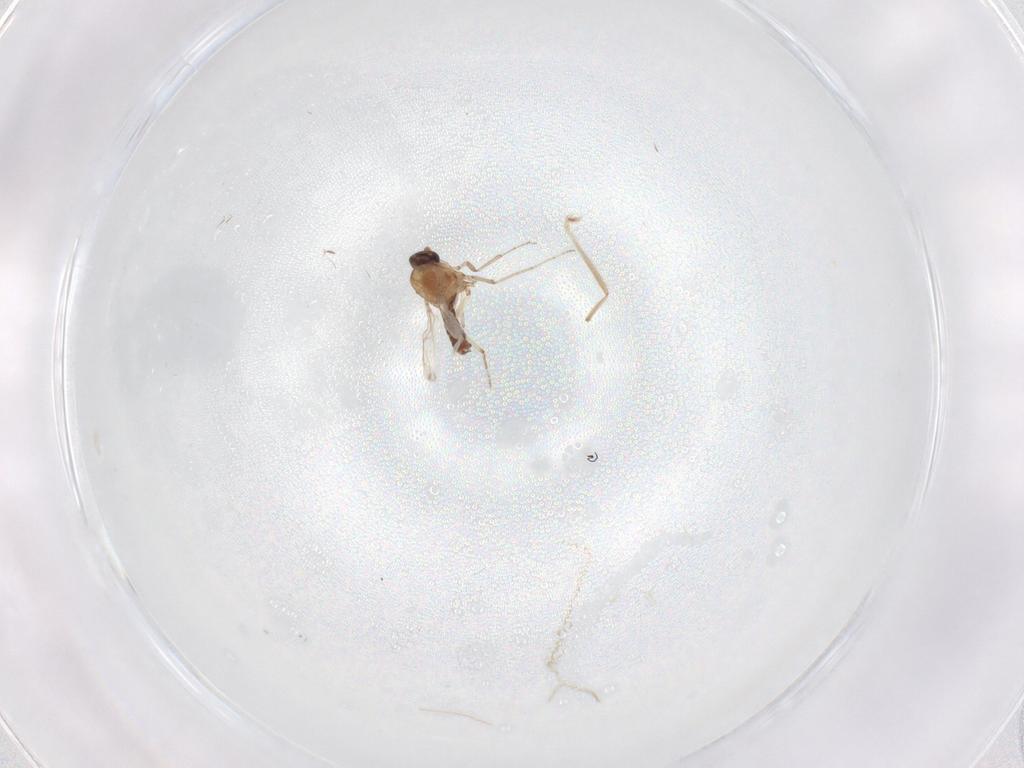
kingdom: Animalia
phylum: Arthropoda
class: Insecta
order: Diptera
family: Chironomidae
